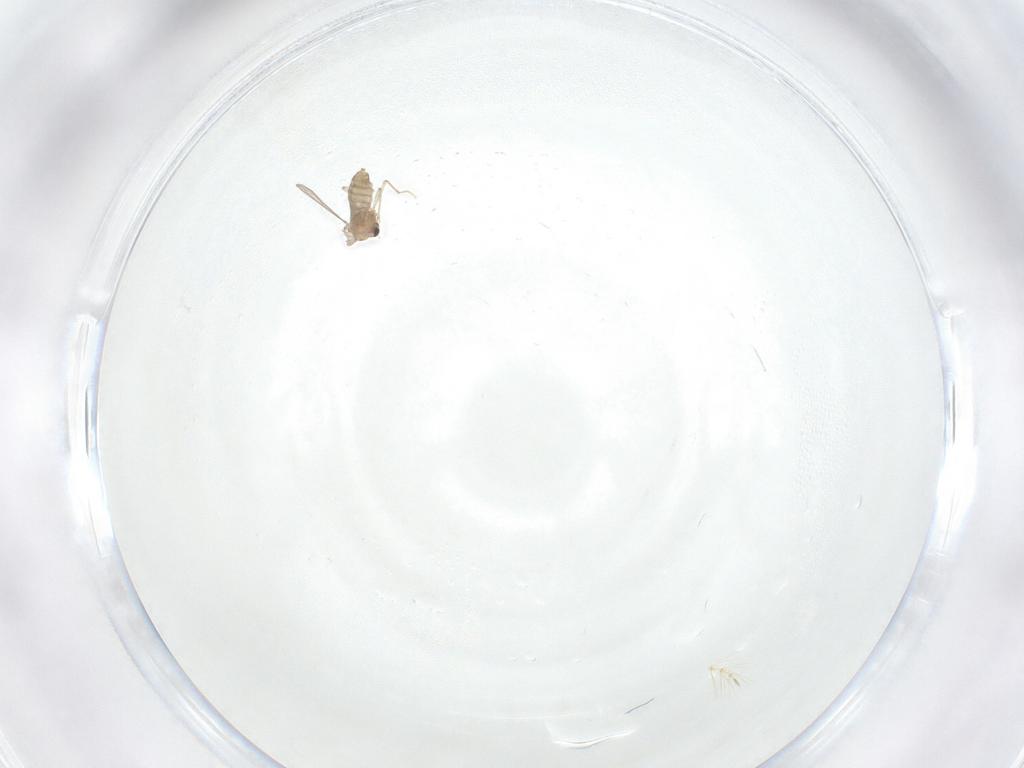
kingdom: Animalia
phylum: Arthropoda
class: Insecta
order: Diptera
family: Chironomidae
